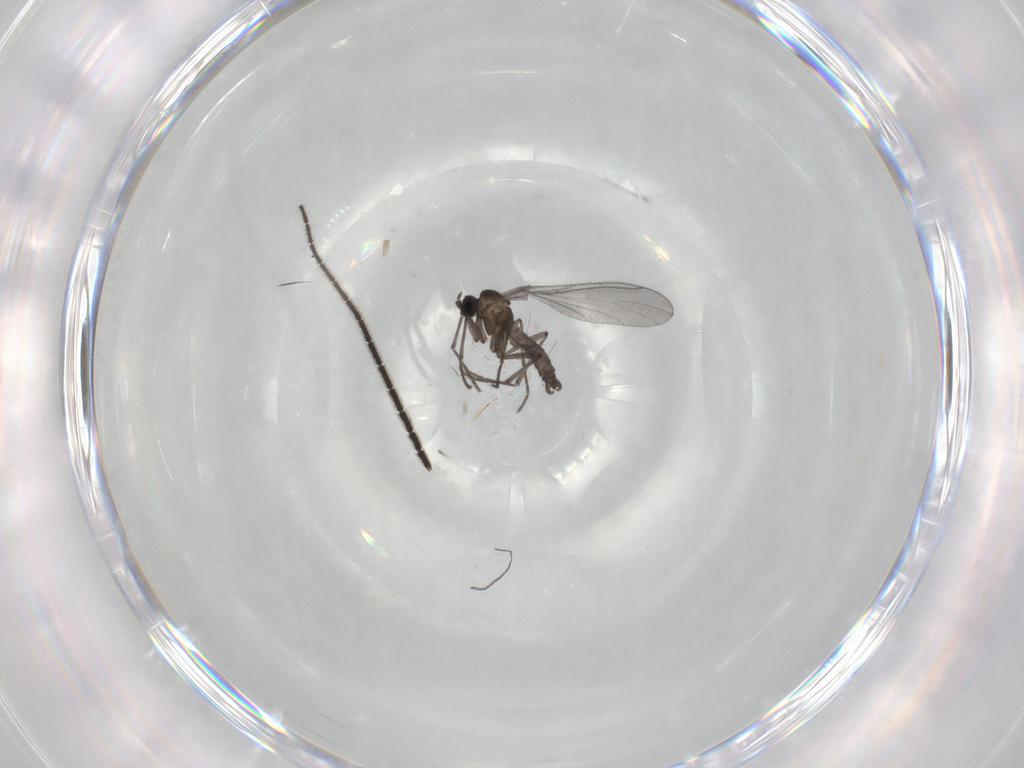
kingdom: Animalia
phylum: Arthropoda
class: Insecta
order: Diptera
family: Sciaridae
